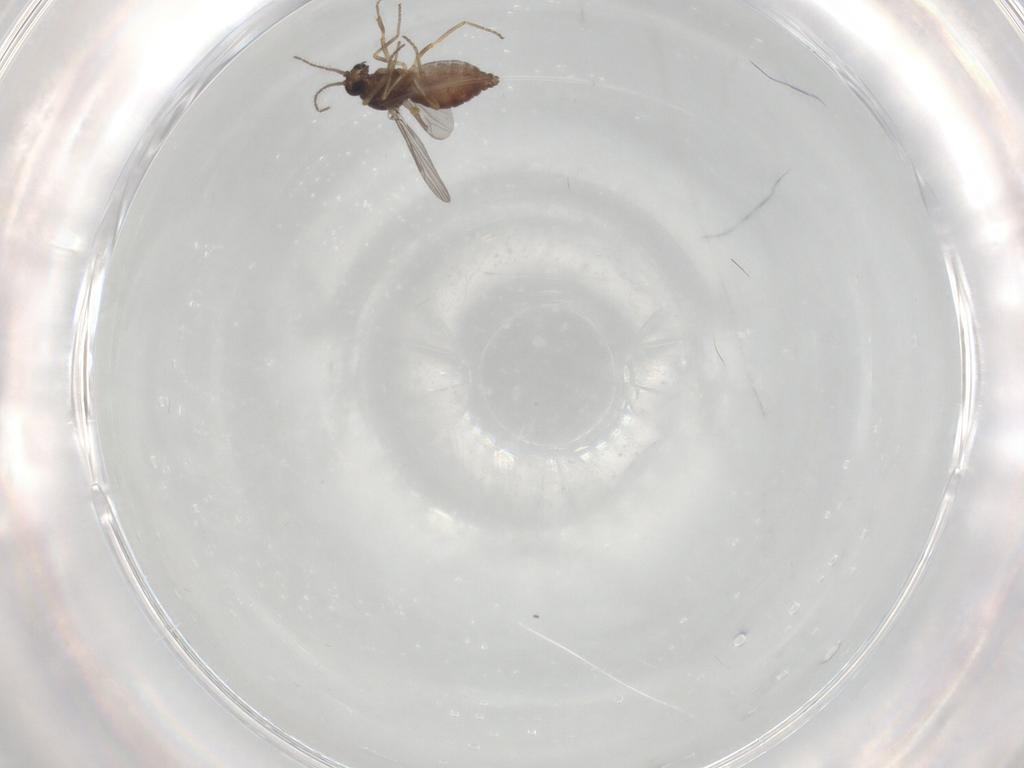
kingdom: Animalia
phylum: Arthropoda
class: Insecta
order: Diptera
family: Ceratopogonidae
